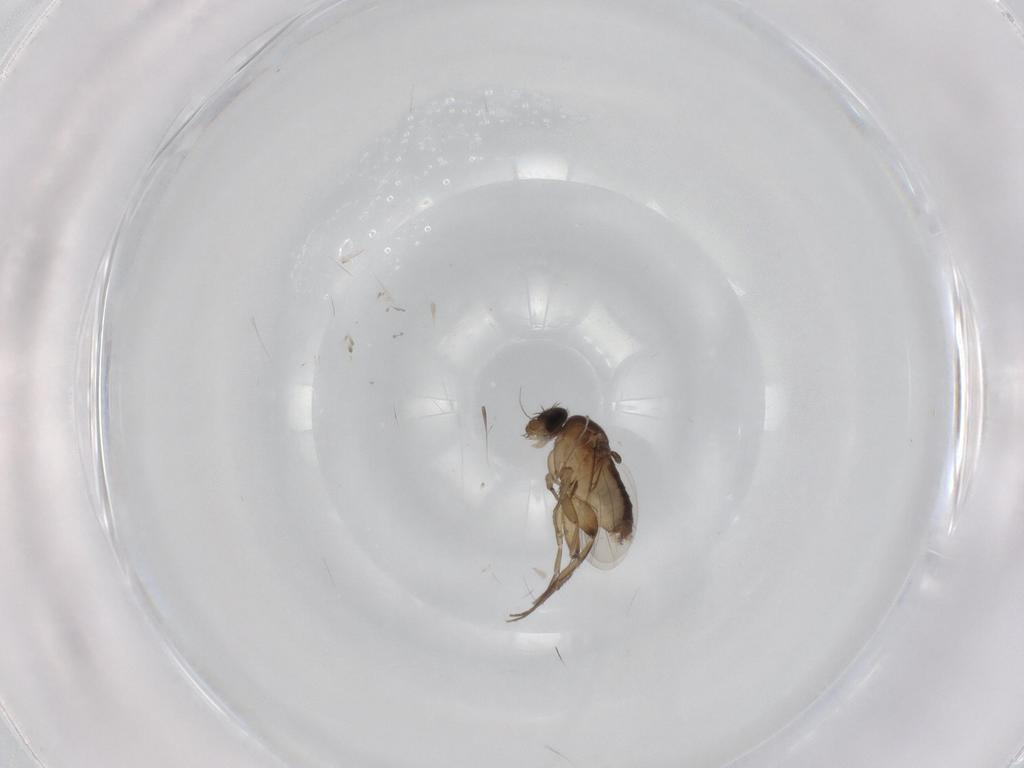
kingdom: Animalia
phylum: Arthropoda
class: Insecta
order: Diptera
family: Phoridae
